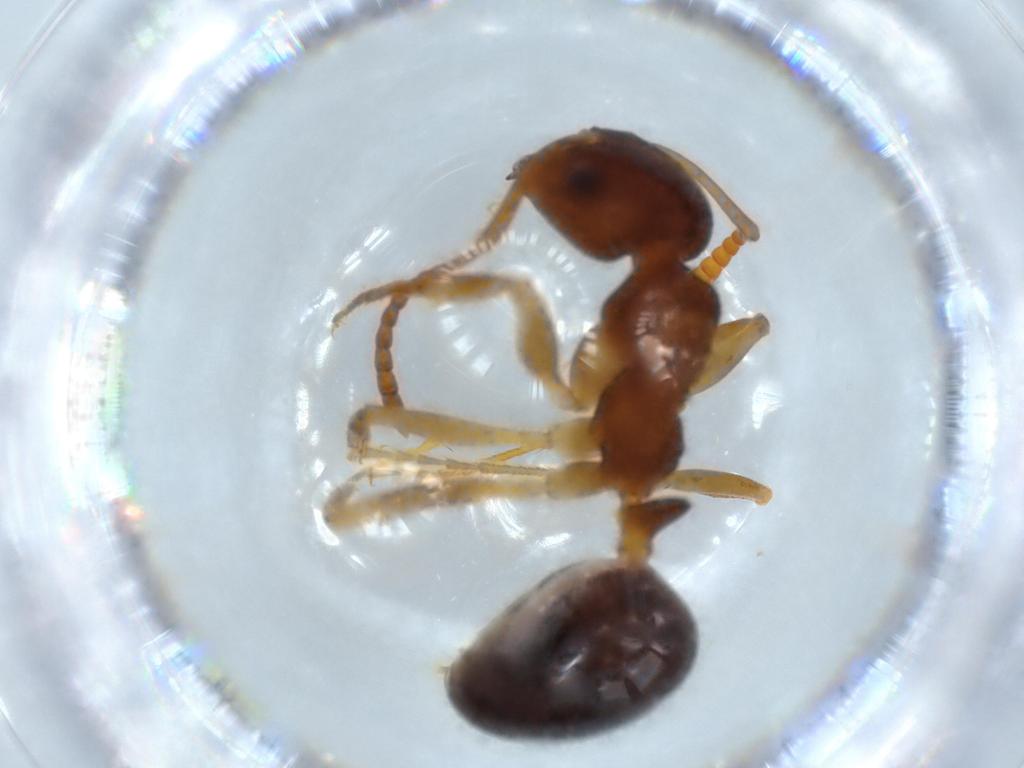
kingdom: Animalia
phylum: Arthropoda
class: Insecta
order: Hymenoptera
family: Formicidae
